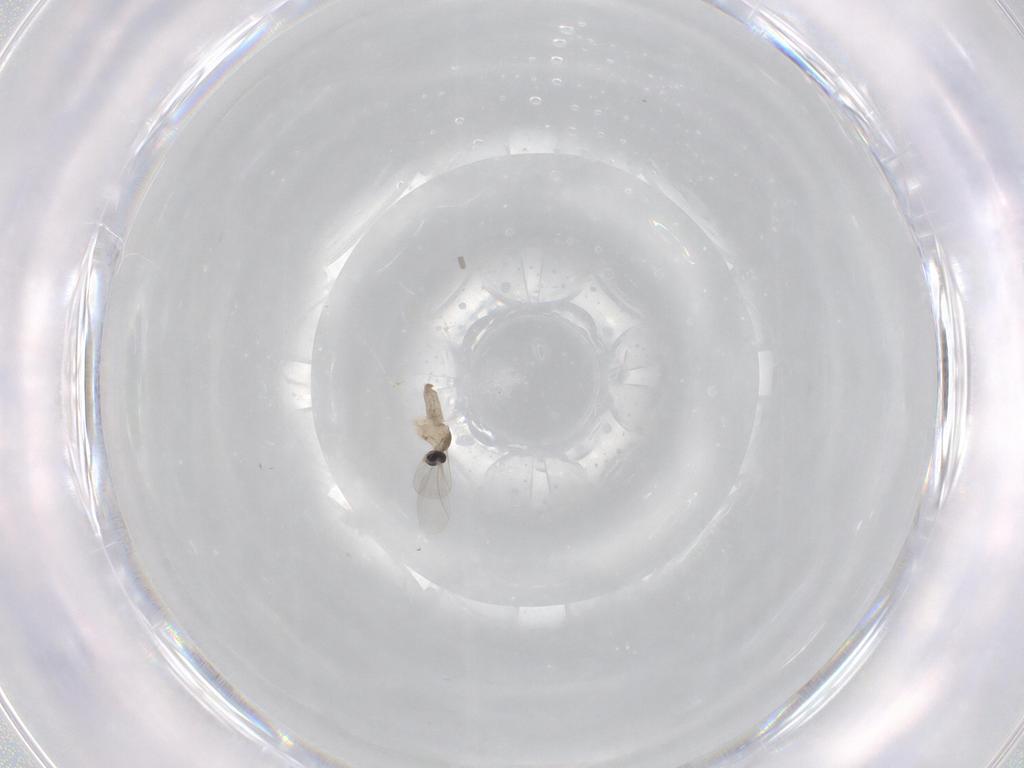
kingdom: Animalia
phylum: Arthropoda
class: Insecta
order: Diptera
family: Cecidomyiidae
